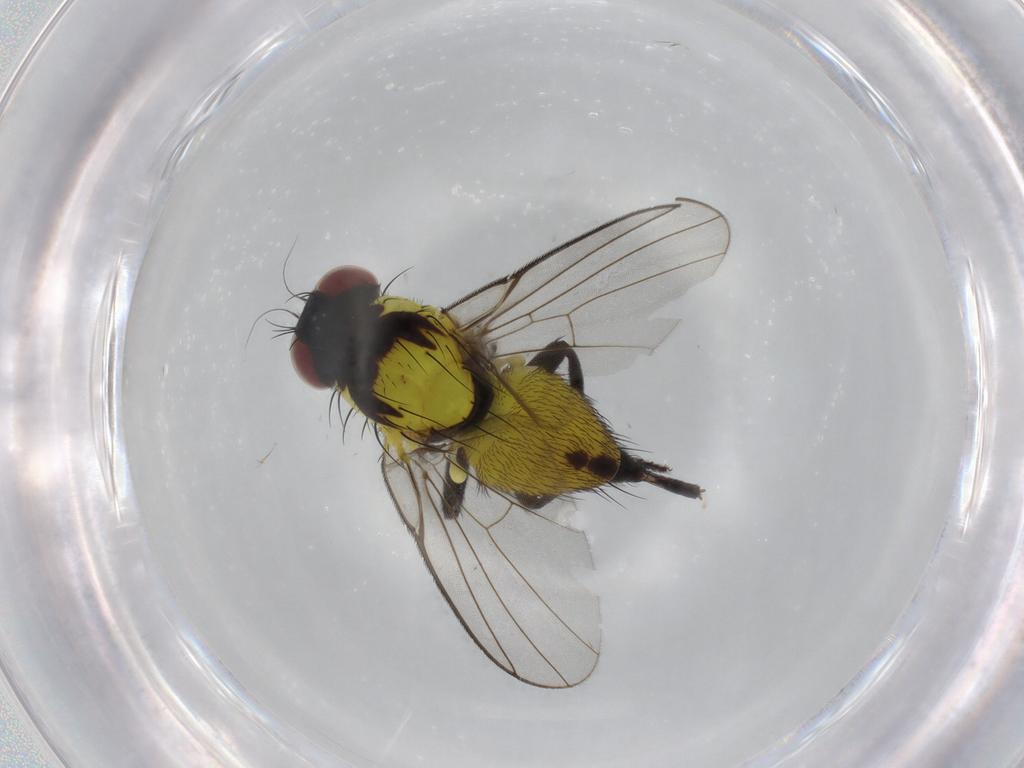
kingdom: Animalia
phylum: Arthropoda
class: Insecta
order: Diptera
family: Agromyzidae
